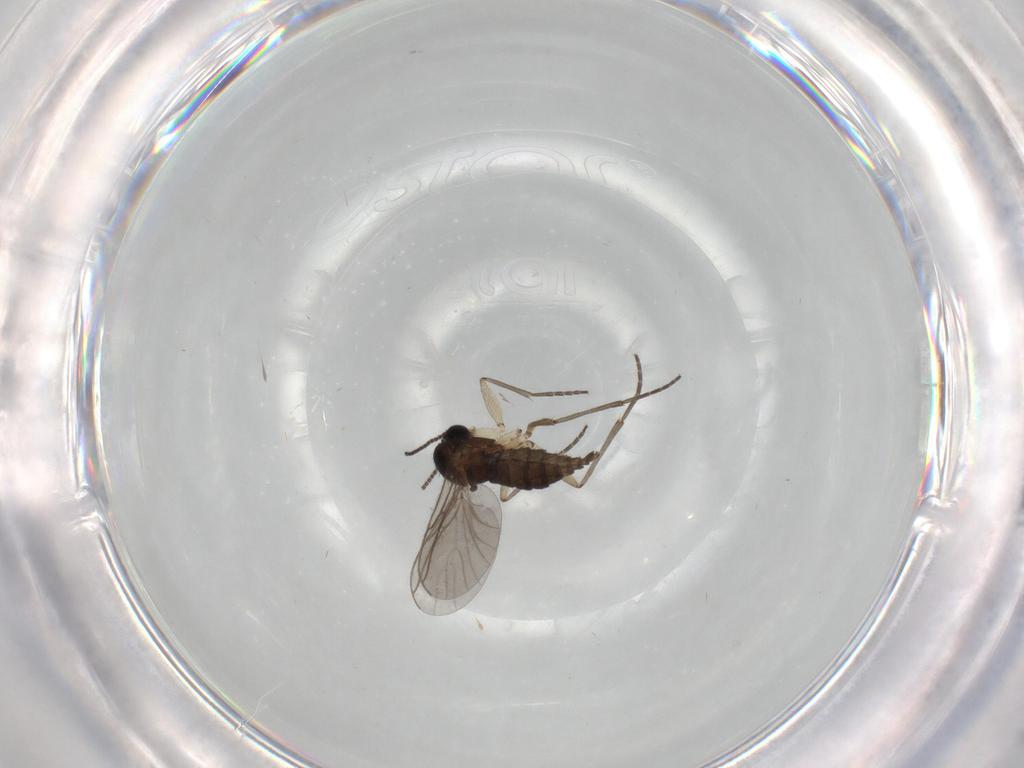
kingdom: Animalia
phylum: Arthropoda
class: Insecta
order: Diptera
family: Sciaridae
